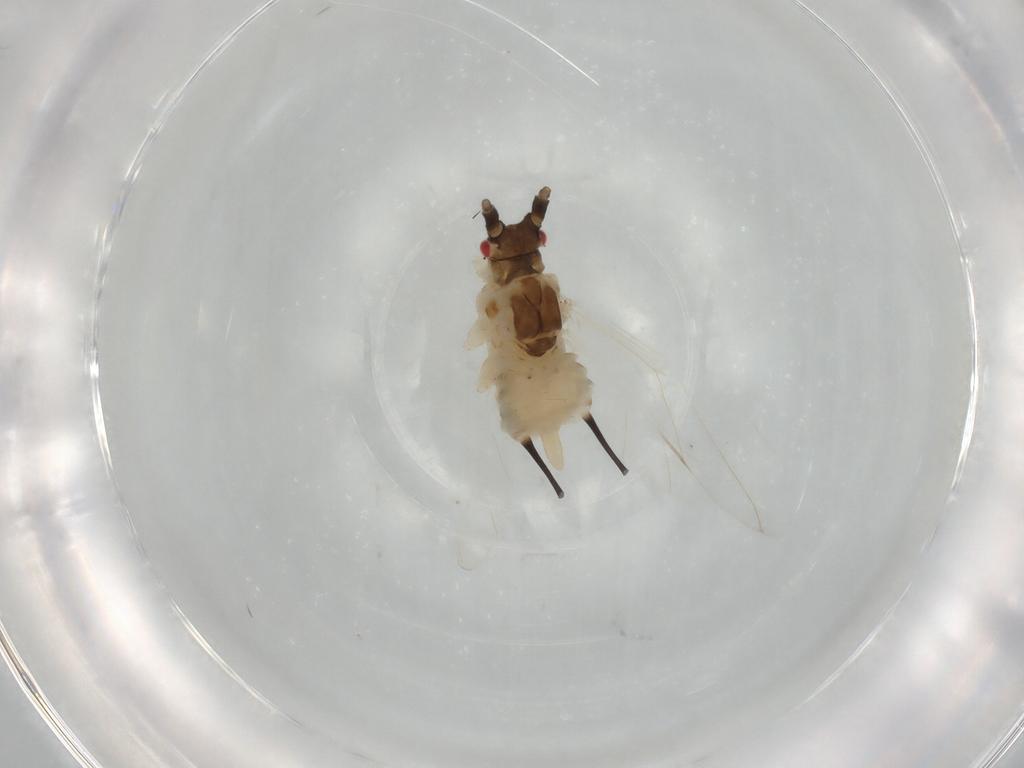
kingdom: Animalia
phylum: Arthropoda
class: Insecta
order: Hemiptera
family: Aphididae
